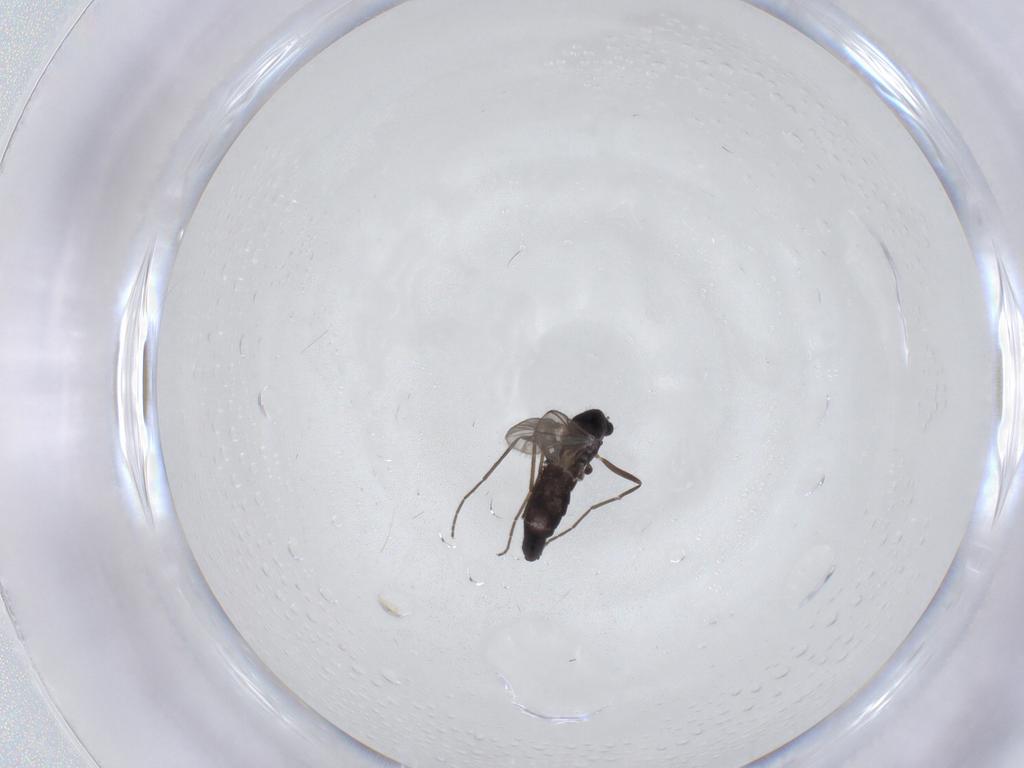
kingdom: Animalia
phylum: Arthropoda
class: Insecta
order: Diptera
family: Chironomidae
